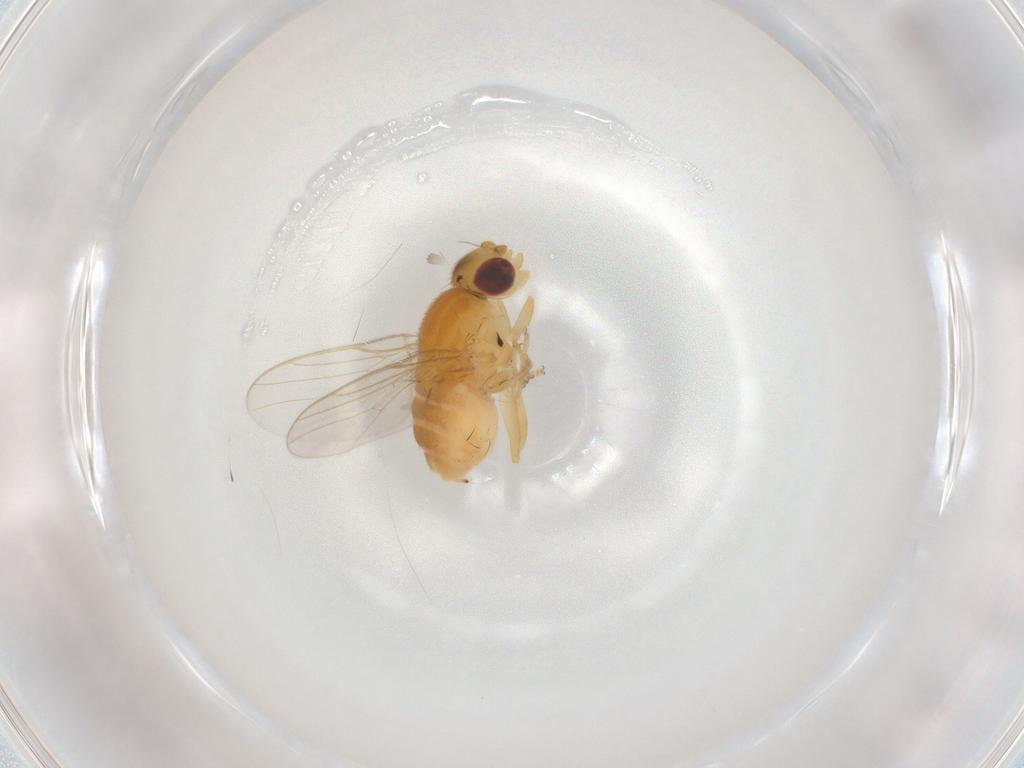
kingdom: Animalia
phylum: Arthropoda
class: Insecta
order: Diptera
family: Chloropidae
